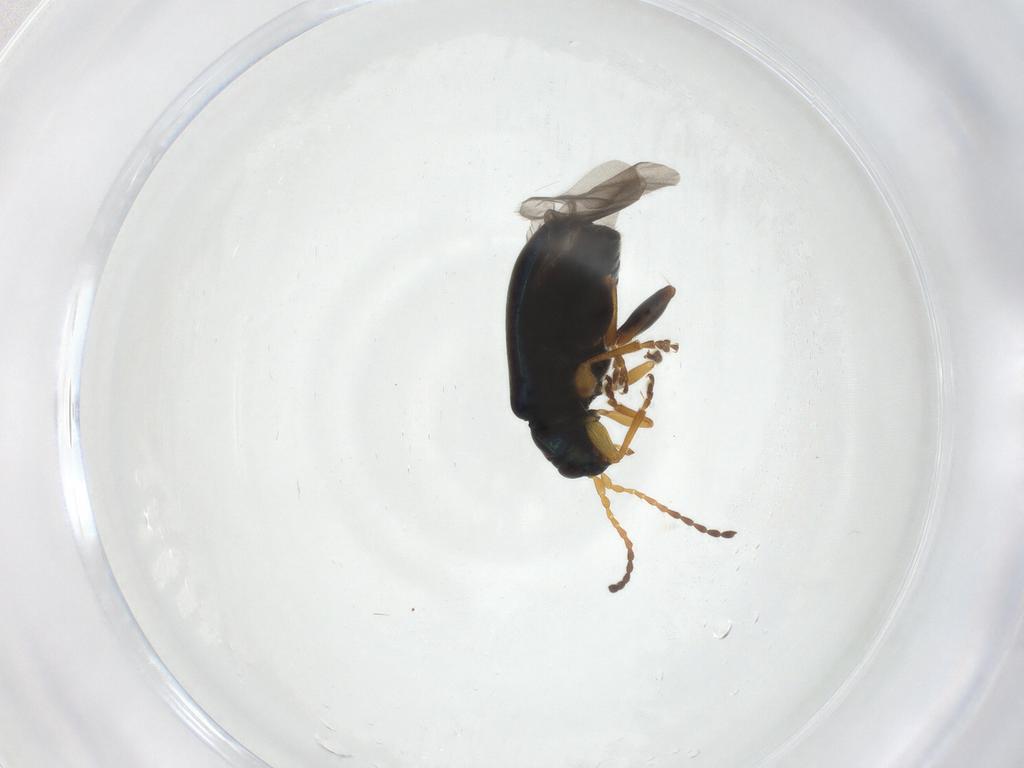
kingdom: Animalia
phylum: Arthropoda
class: Insecta
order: Coleoptera
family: Chrysomelidae
